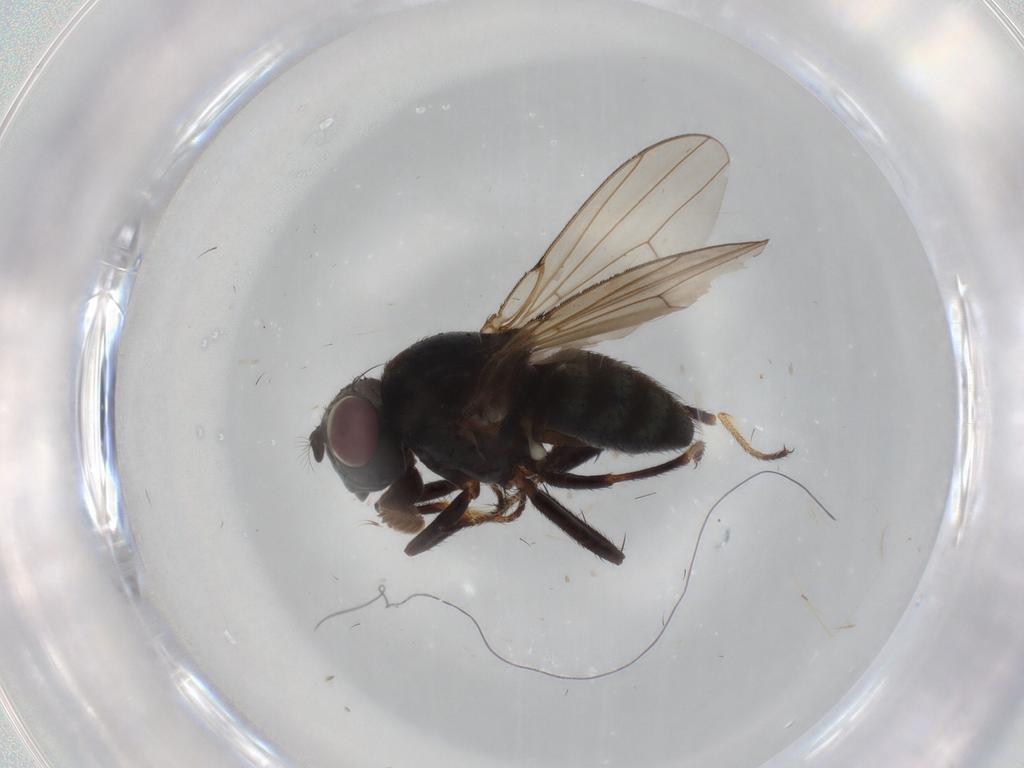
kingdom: Animalia
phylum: Arthropoda
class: Insecta
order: Diptera
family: Ephydridae
